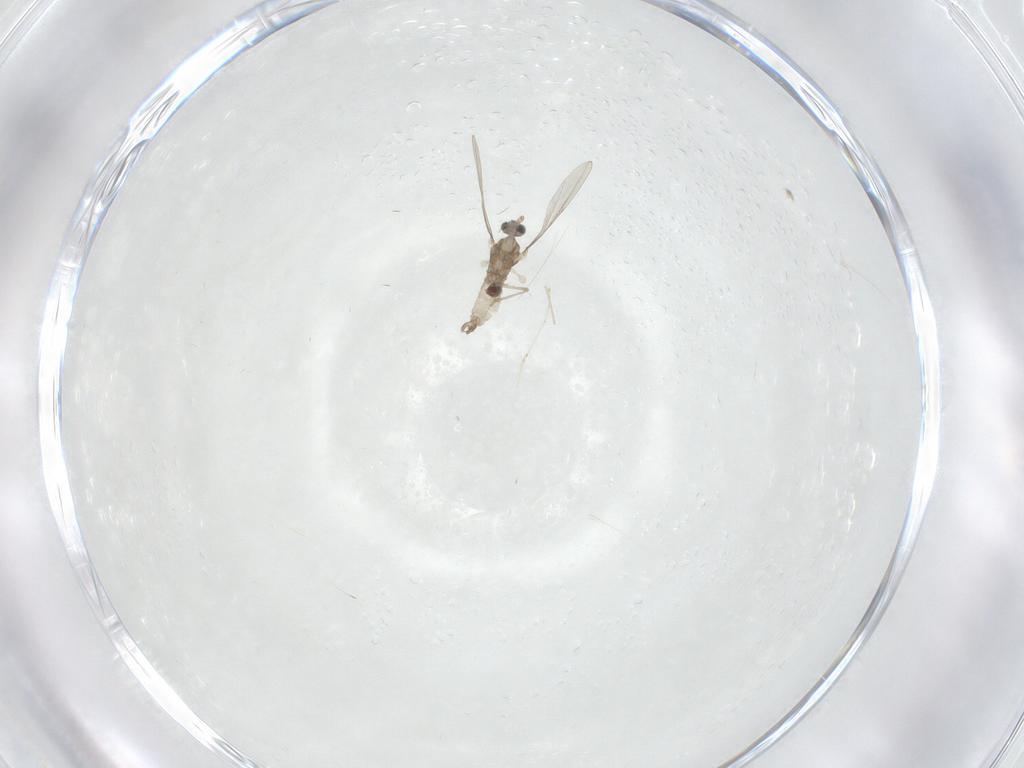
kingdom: Animalia
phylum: Arthropoda
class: Insecta
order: Diptera
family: Cecidomyiidae
